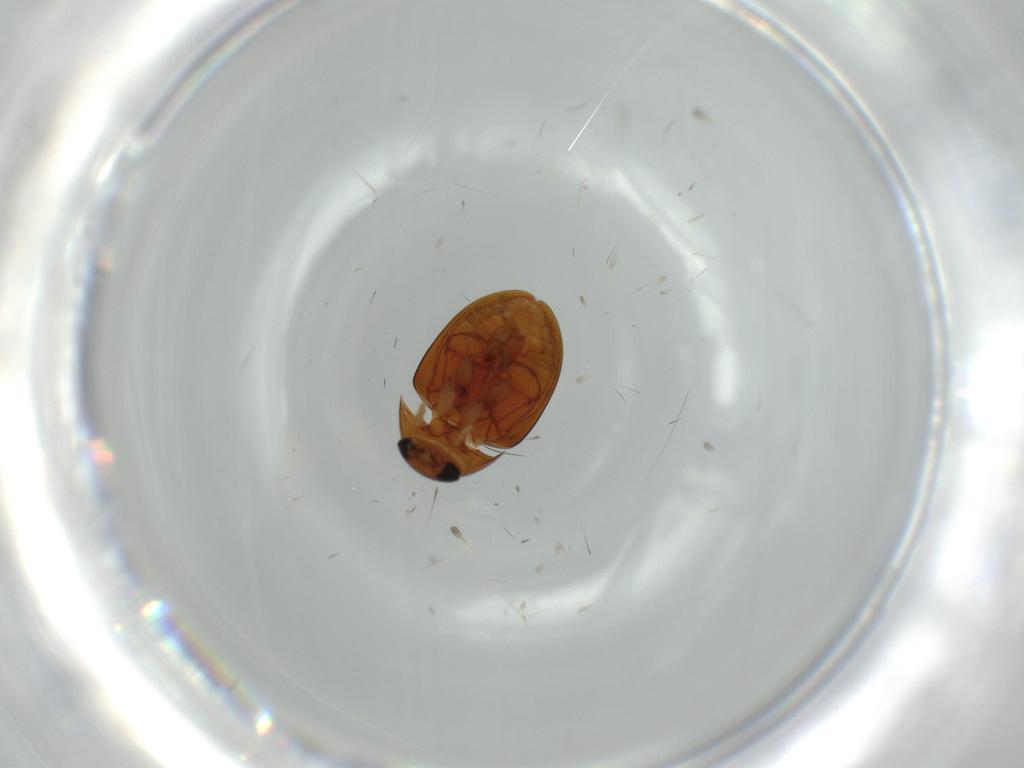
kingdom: Animalia
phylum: Arthropoda
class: Insecta
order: Coleoptera
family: Phalacridae
